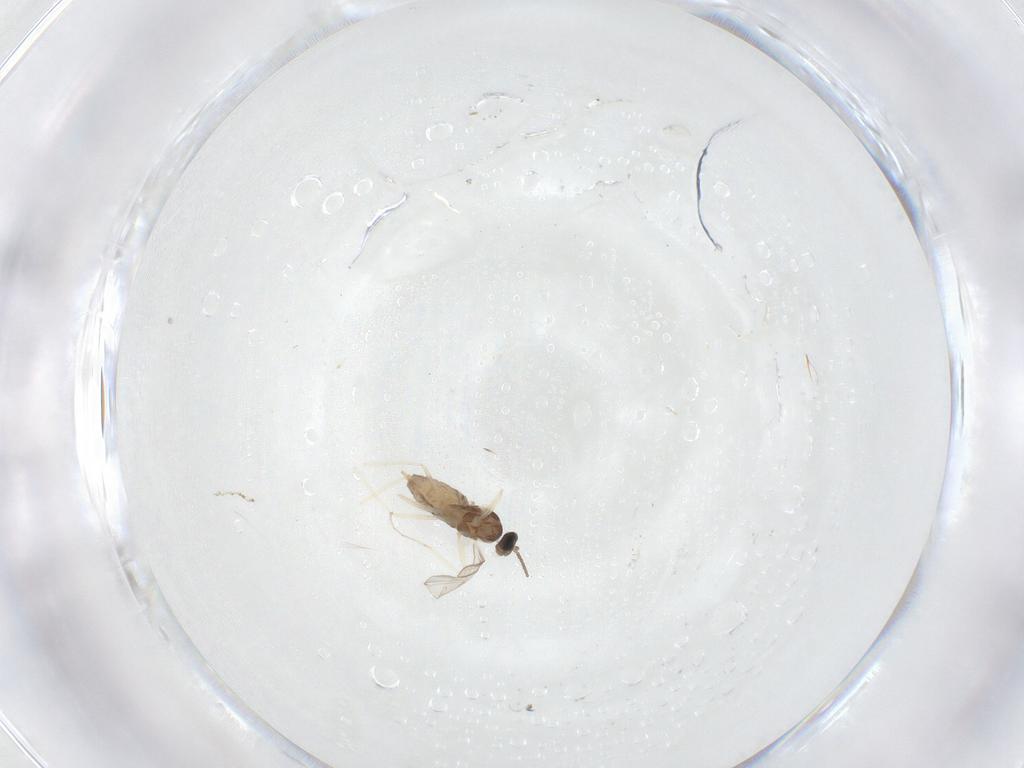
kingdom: Animalia
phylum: Arthropoda
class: Insecta
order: Diptera
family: Cecidomyiidae
